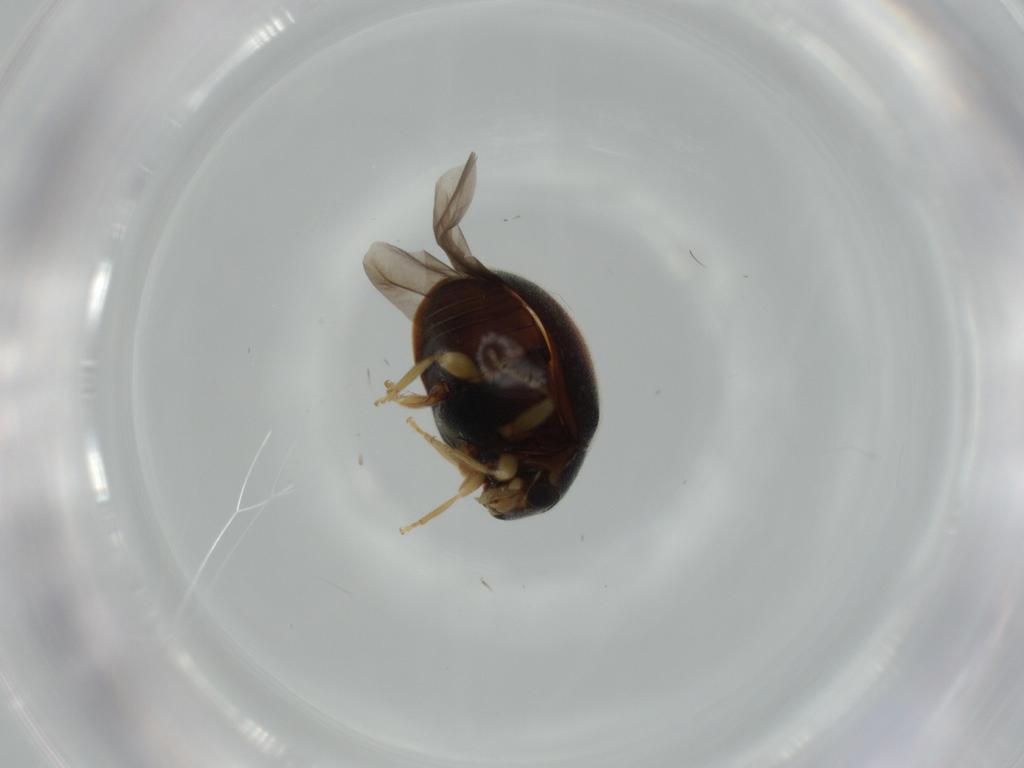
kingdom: Animalia
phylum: Arthropoda
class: Insecta
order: Coleoptera
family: Coccinellidae
